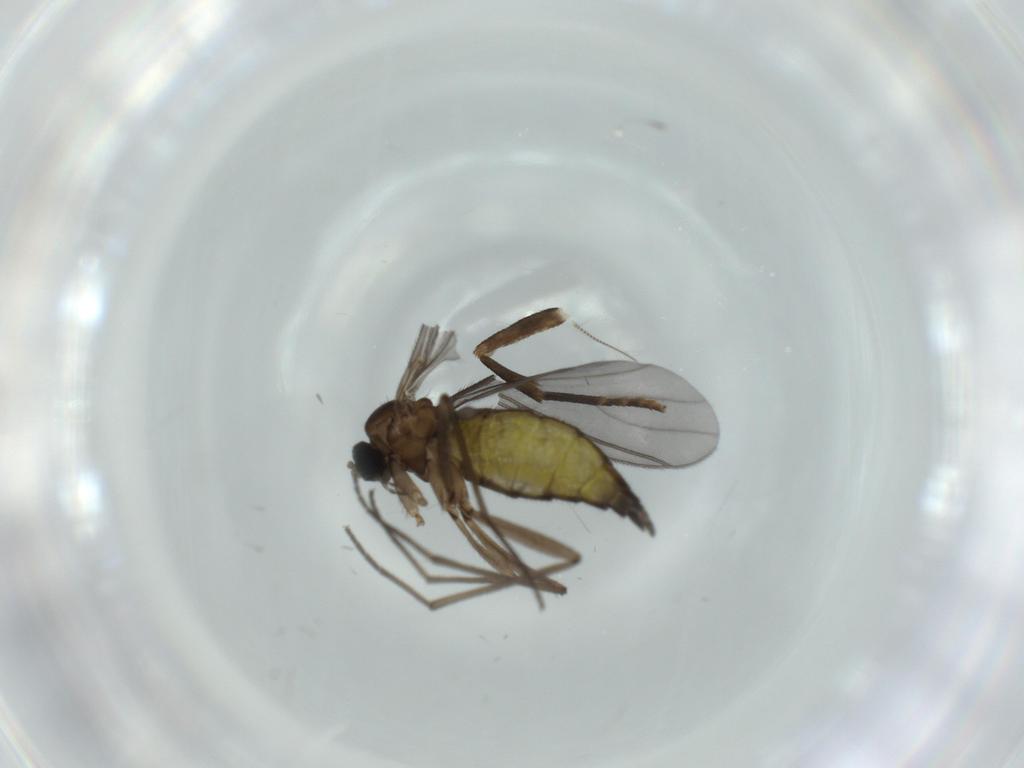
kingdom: Animalia
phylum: Arthropoda
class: Insecta
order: Diptera
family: Sciaridae
